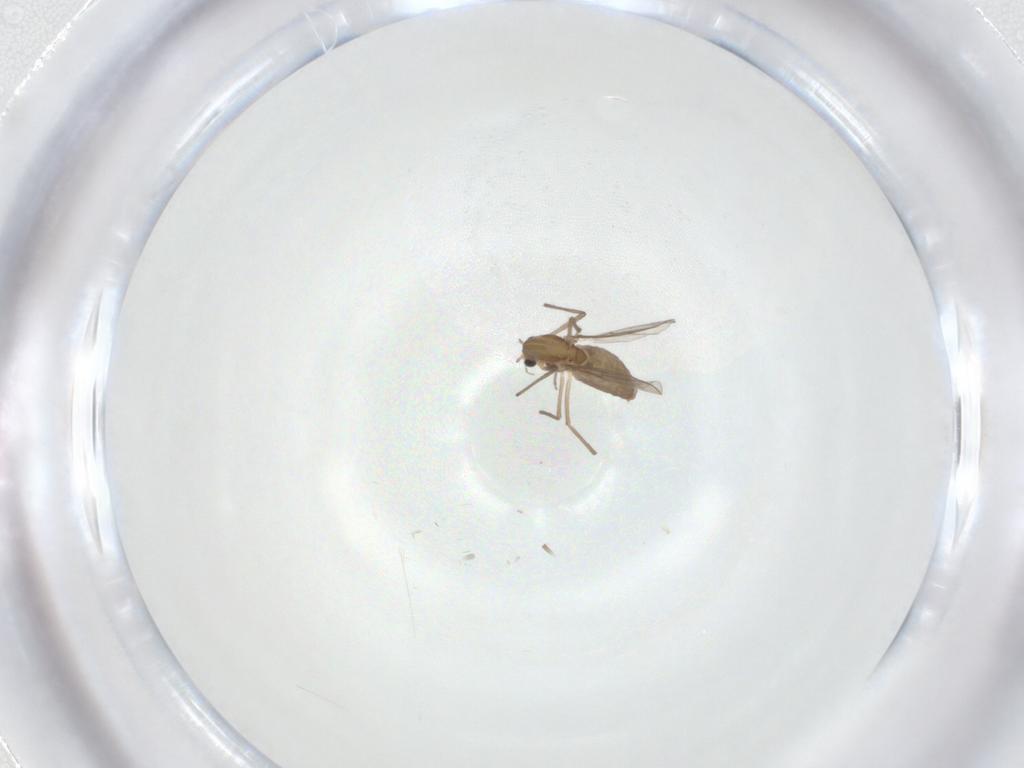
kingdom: Animalia
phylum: Arthropoda
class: Insecta
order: Diptera
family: Chironomidae
